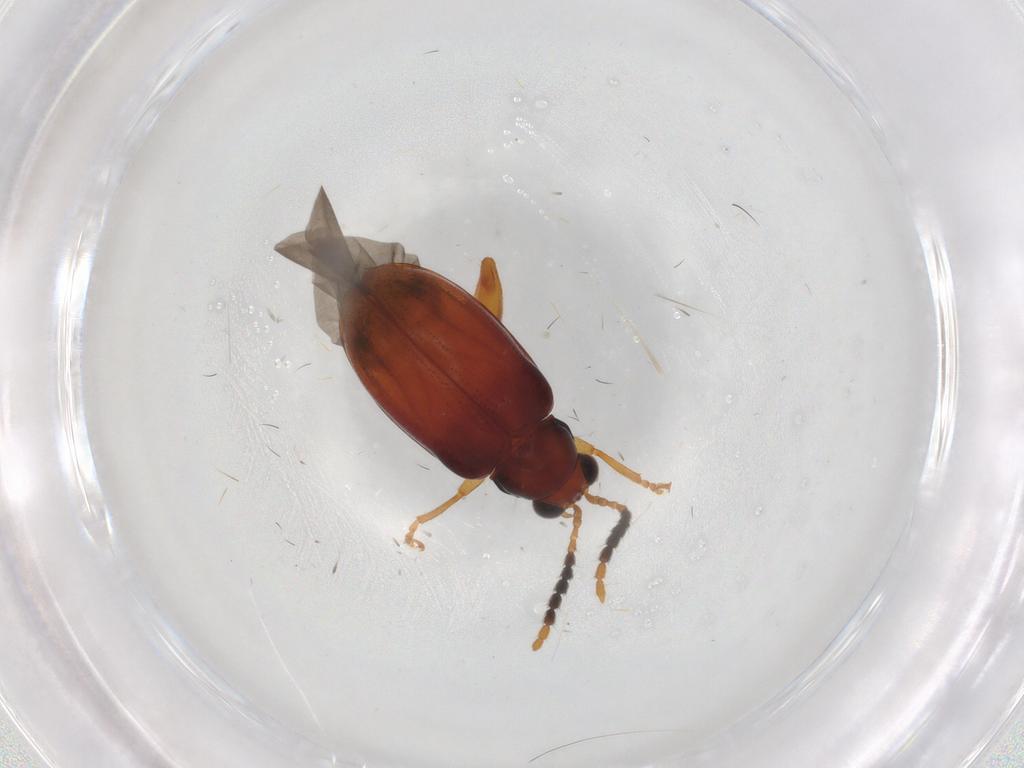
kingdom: Animalia
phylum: Arthropoda
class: Insecta
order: Coleoptera
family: Chrysomelidae
